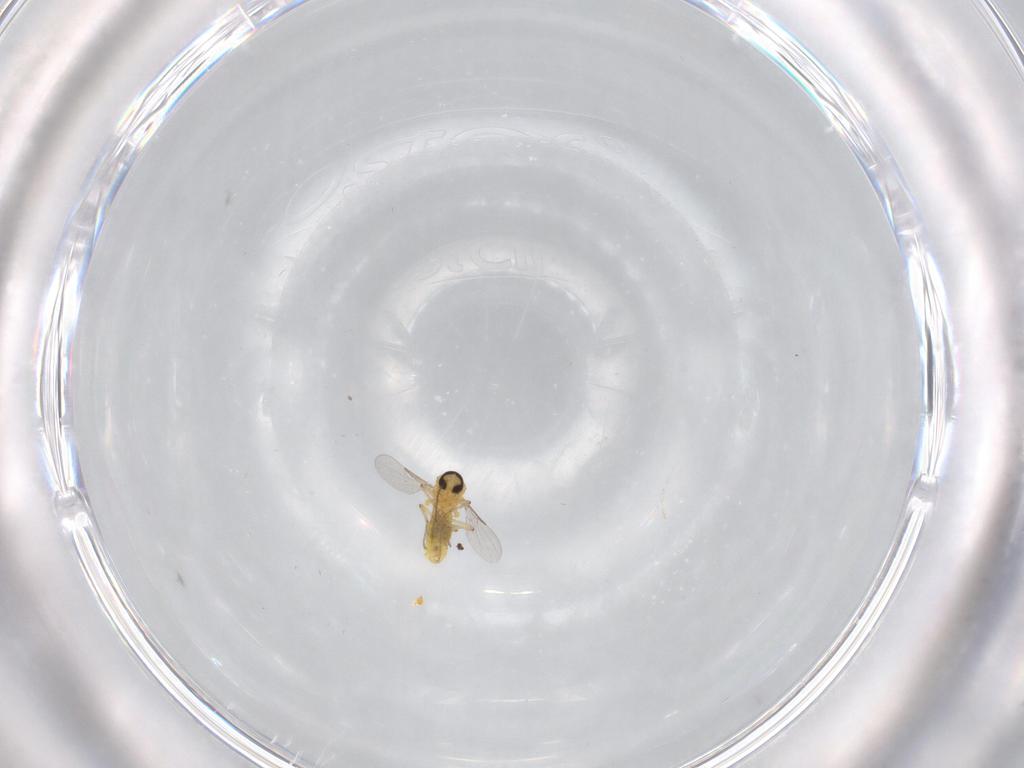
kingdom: Animalia
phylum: Arthropoda
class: Insecta
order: Diptera
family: Ceratopogonidae
